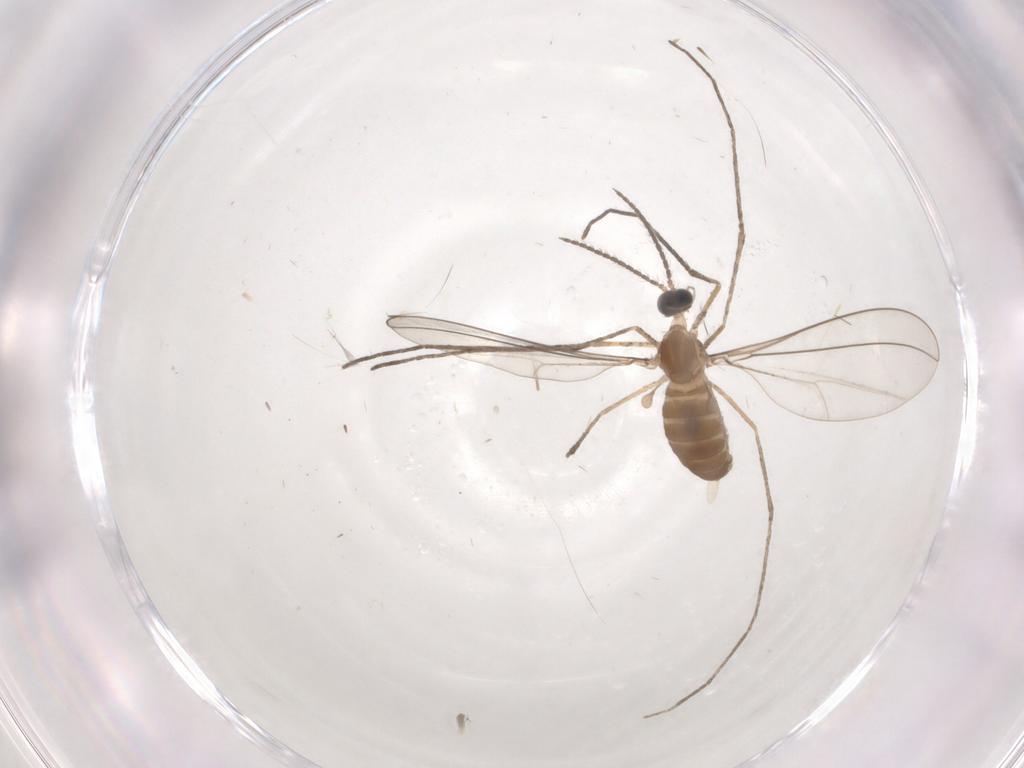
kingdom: Animalia
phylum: Arthropoda
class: Insecta
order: Diptera
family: Cecidomyiidae
